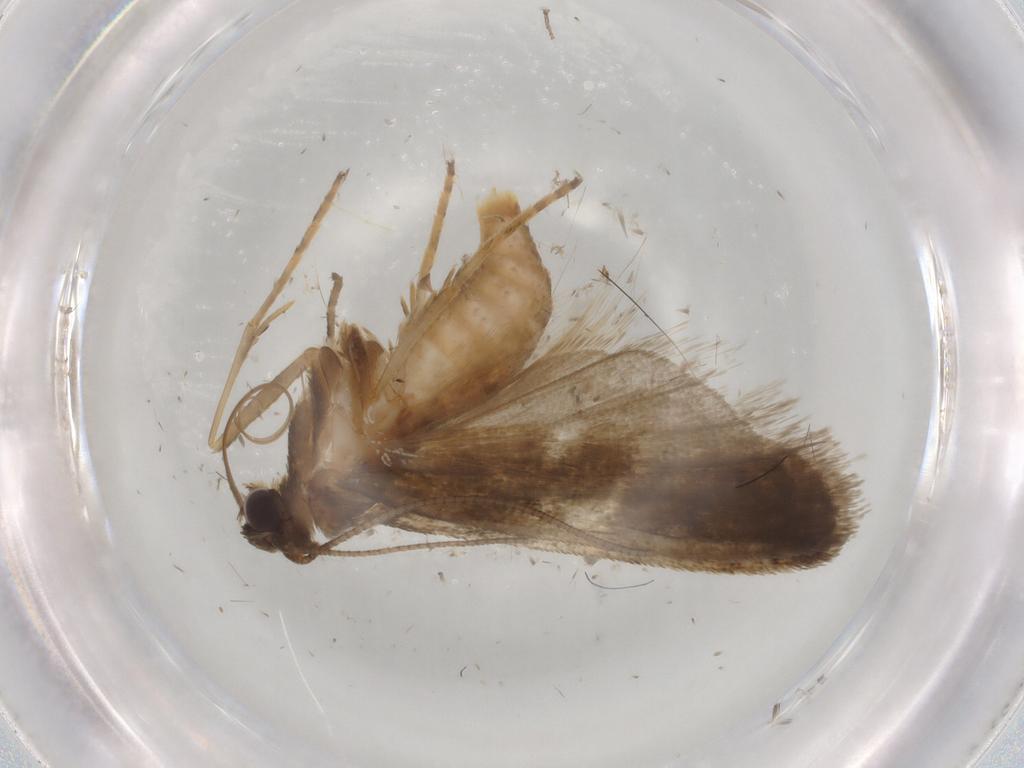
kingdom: Animalia
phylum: Arthropoda
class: Insecta
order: Lepidoptera
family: Noctuidae
